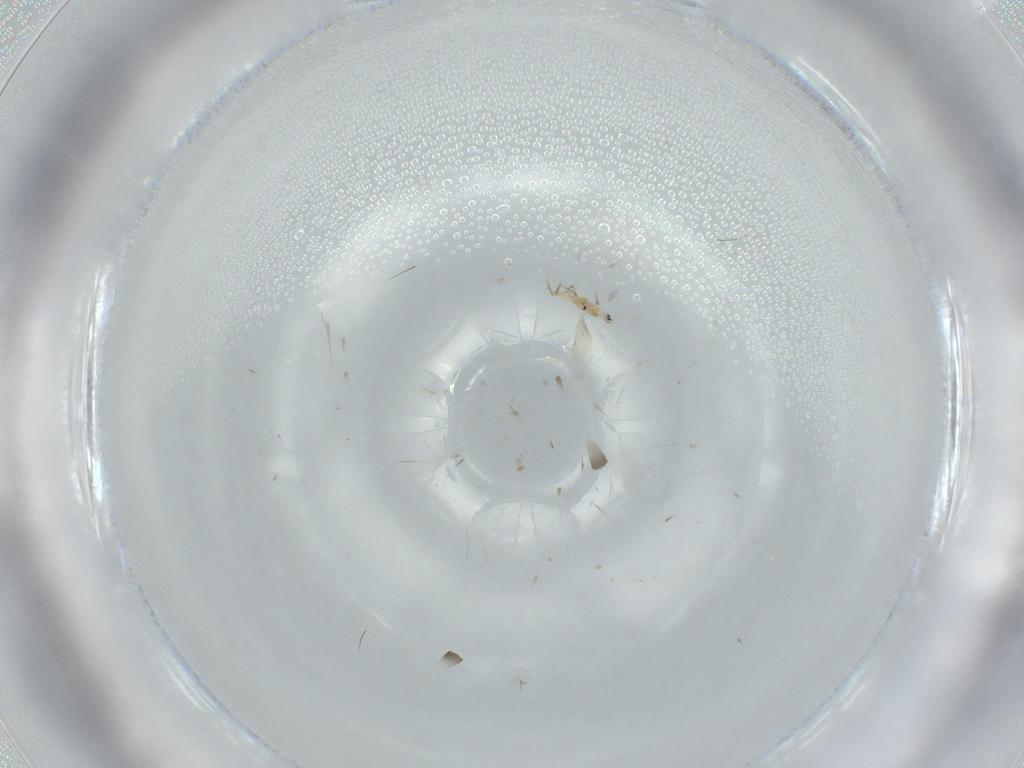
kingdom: Animalia
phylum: Arthropoda
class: Insecta
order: Hemiptera
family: Diaspididae
